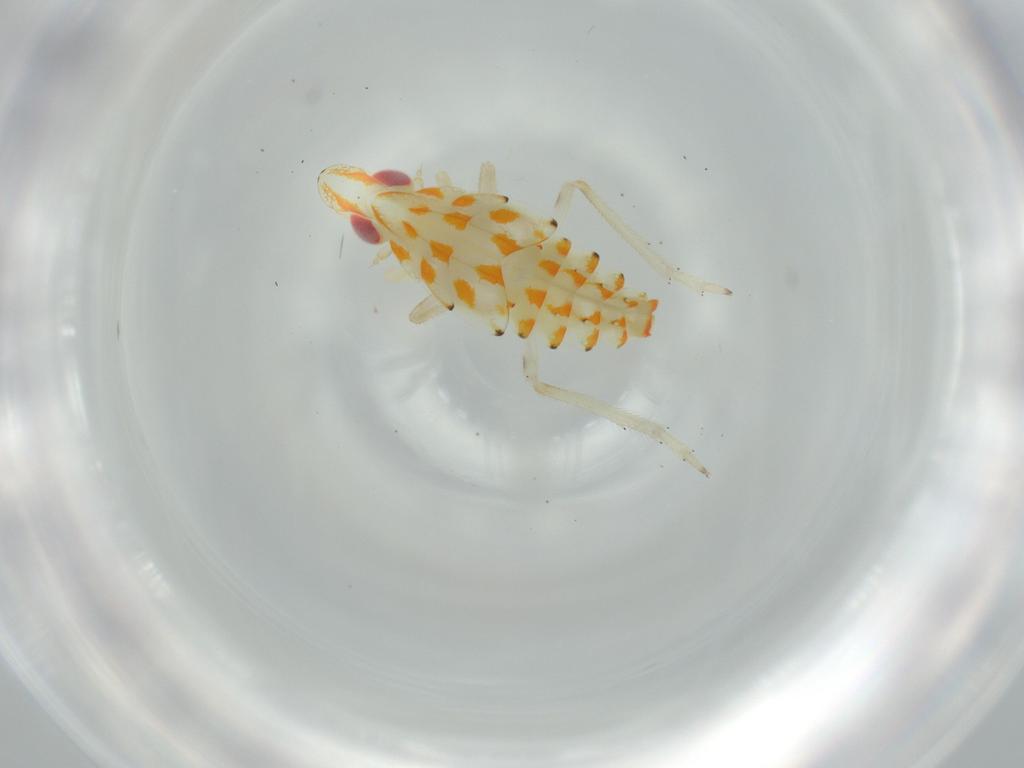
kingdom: Animalia
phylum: Arthropoda
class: Insecta
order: Hemiptera
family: Tropiduchidae
